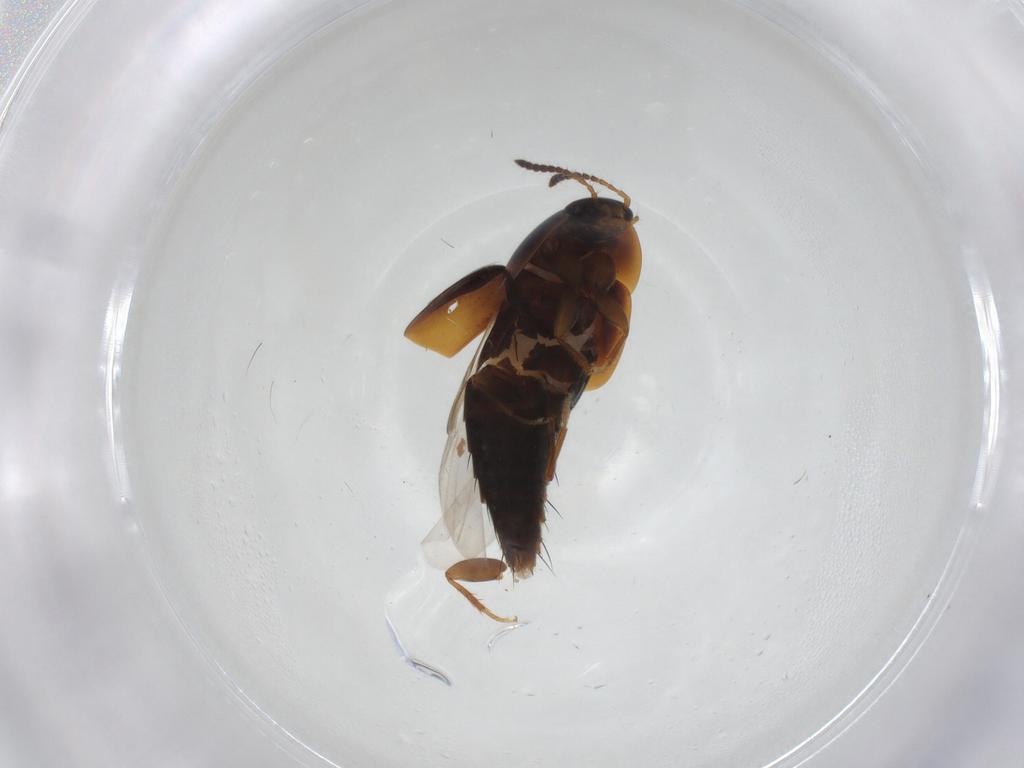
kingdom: Animalia
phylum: Arthropoda
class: Insecta
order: Coleoptera
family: Staphylinidae
